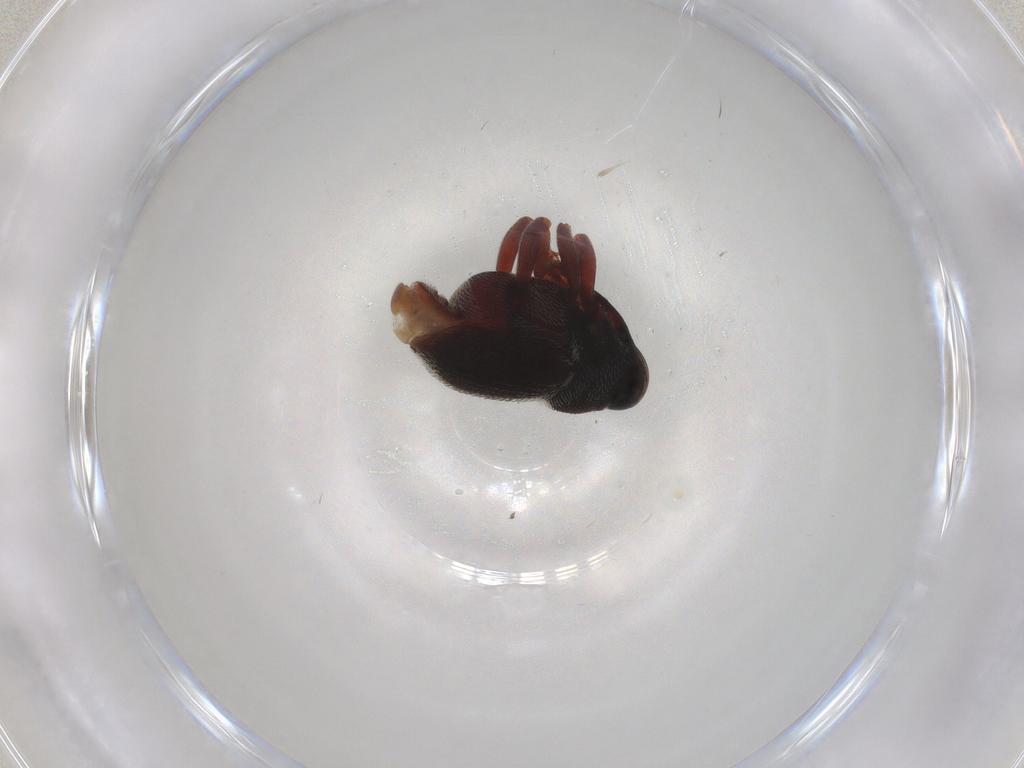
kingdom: Animalia
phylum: Arthropoda
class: Insecta
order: Coleoptera
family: Curculionidae
